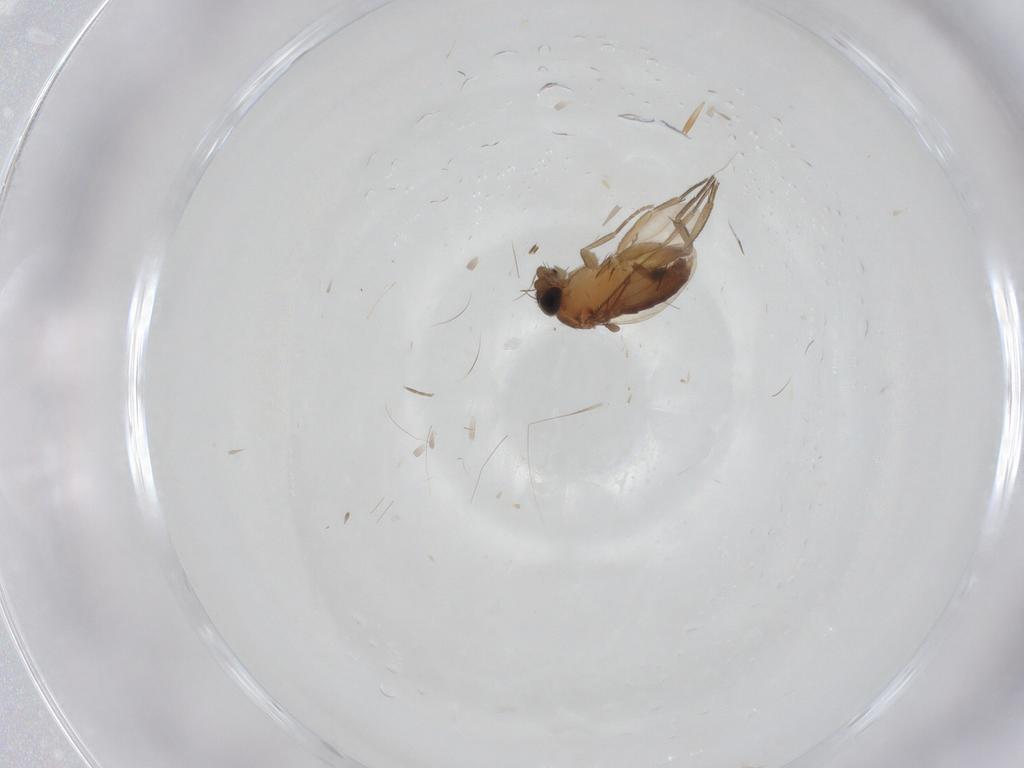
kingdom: Animalia
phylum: Arthropoda
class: Insecta
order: Diptera
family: Phoridae
